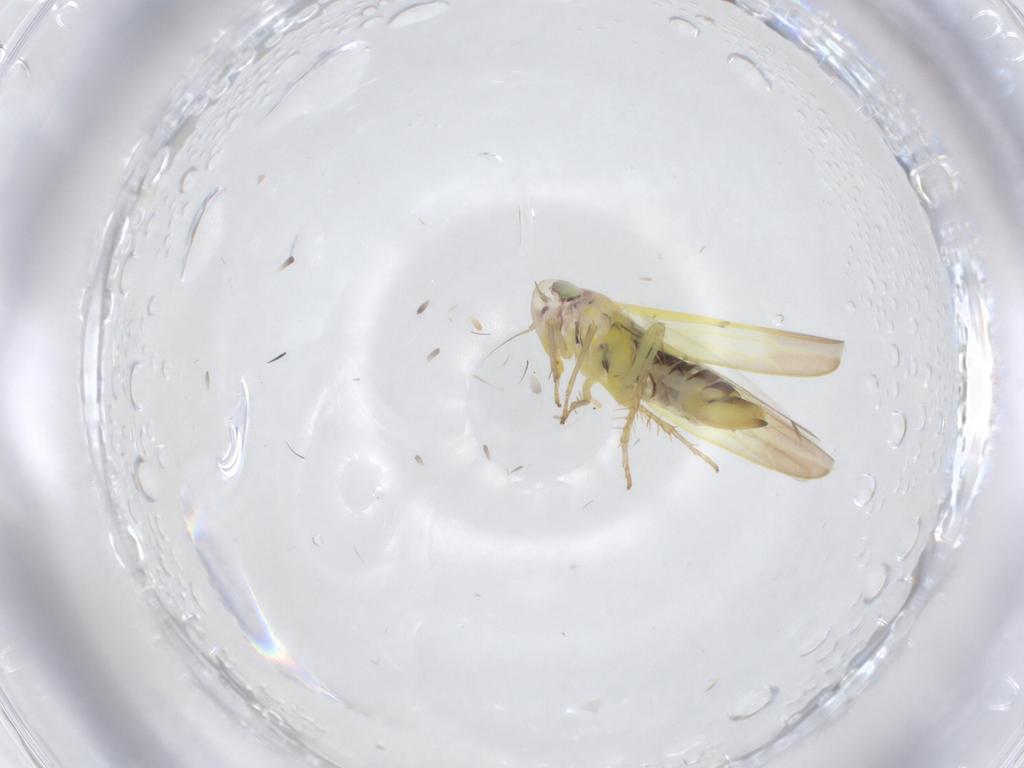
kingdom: Animalia
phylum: Arthropoda
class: Insecta
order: Hemiptera
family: Cicadellidae
